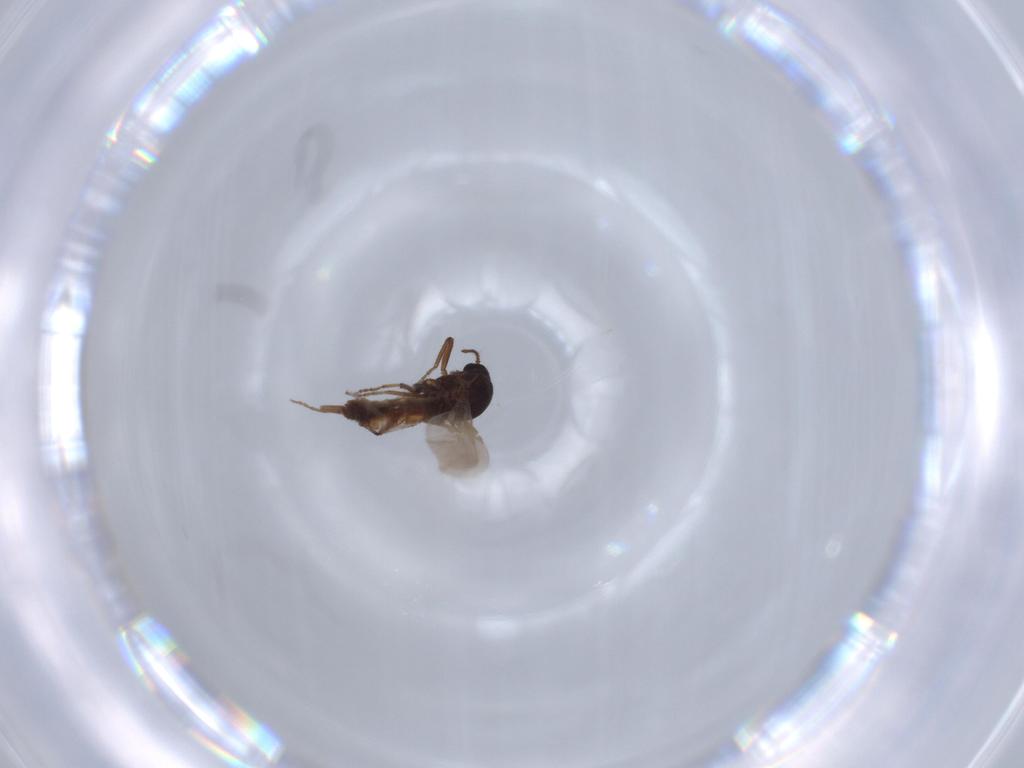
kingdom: Animalia
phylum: Arthropoda
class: Insecta
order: Diptera
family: Ceratopogonidae
